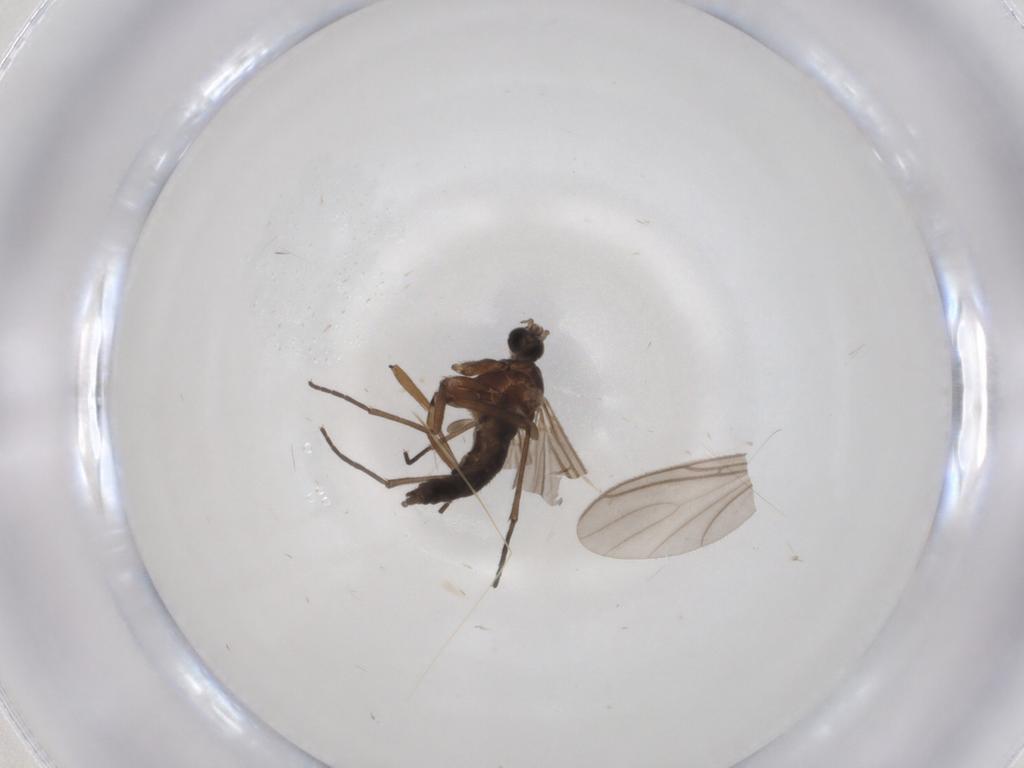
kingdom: Animalia
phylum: Arthropoda
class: Insecta
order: Diptera
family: Sciaridae
